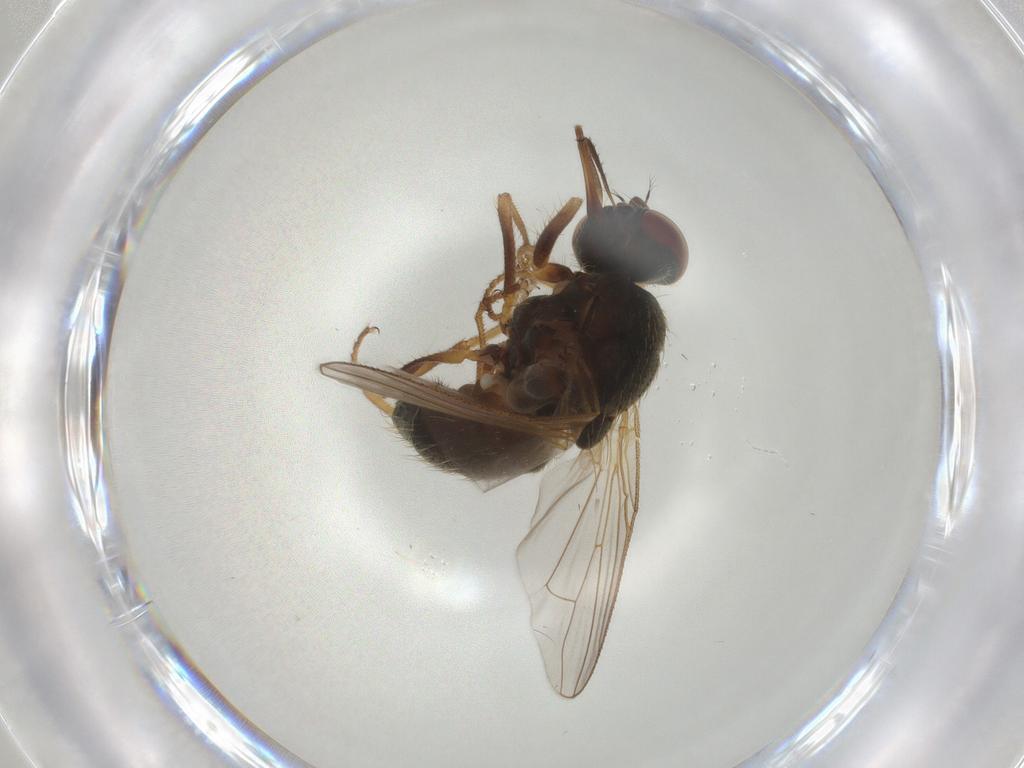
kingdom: Animalia
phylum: Arthropoda
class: Insecta
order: Diptera
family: Muscidae
